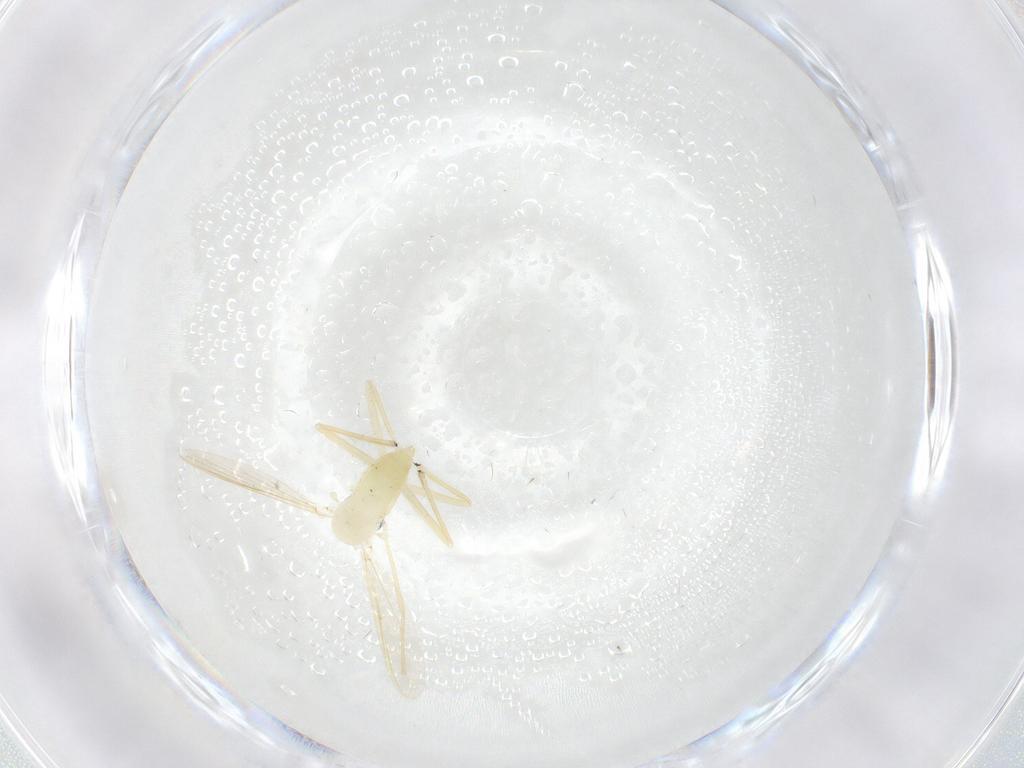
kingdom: Animalia
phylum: Arthropoda
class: Insecta
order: Diptera
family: Chironomidae
